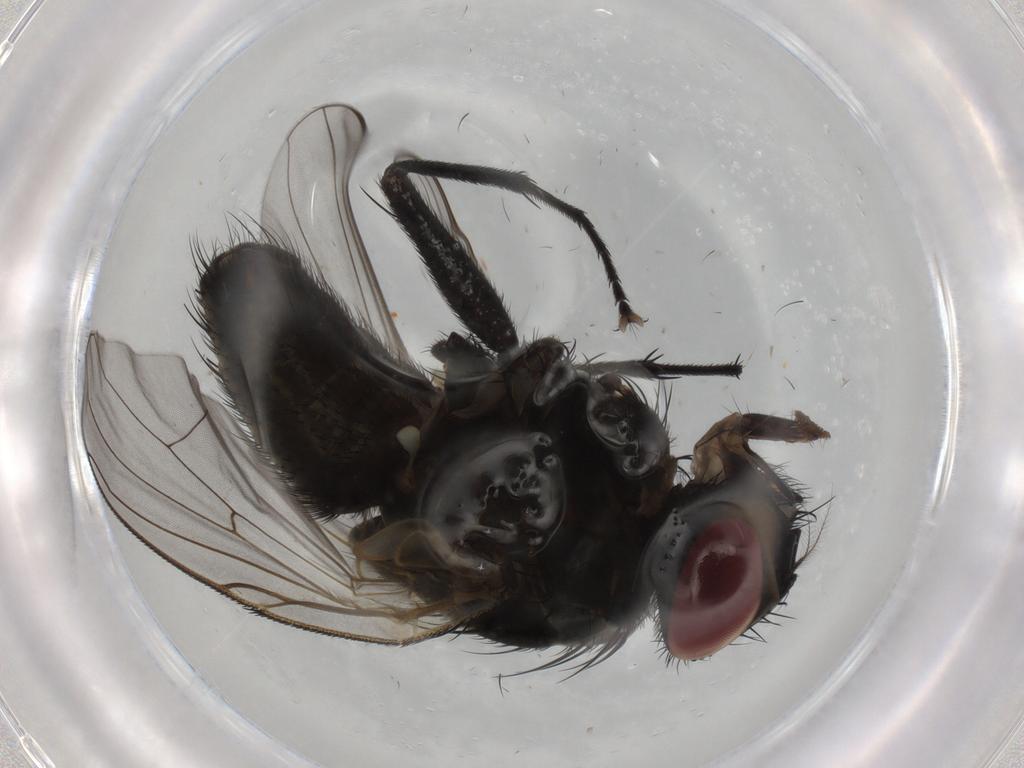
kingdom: Animalia
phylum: Arthropoda
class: Insecta
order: Diptera
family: Muscidae
